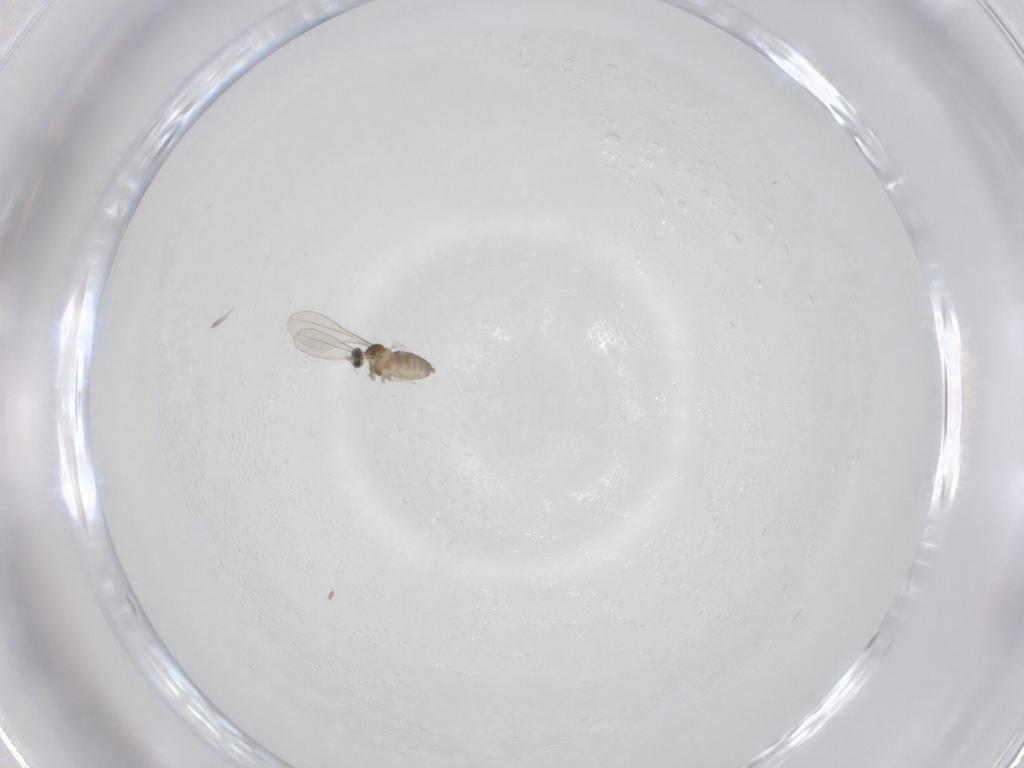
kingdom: Animalia
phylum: Arthropoda
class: Insecta
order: Diptera
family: Cecidomyiidae
